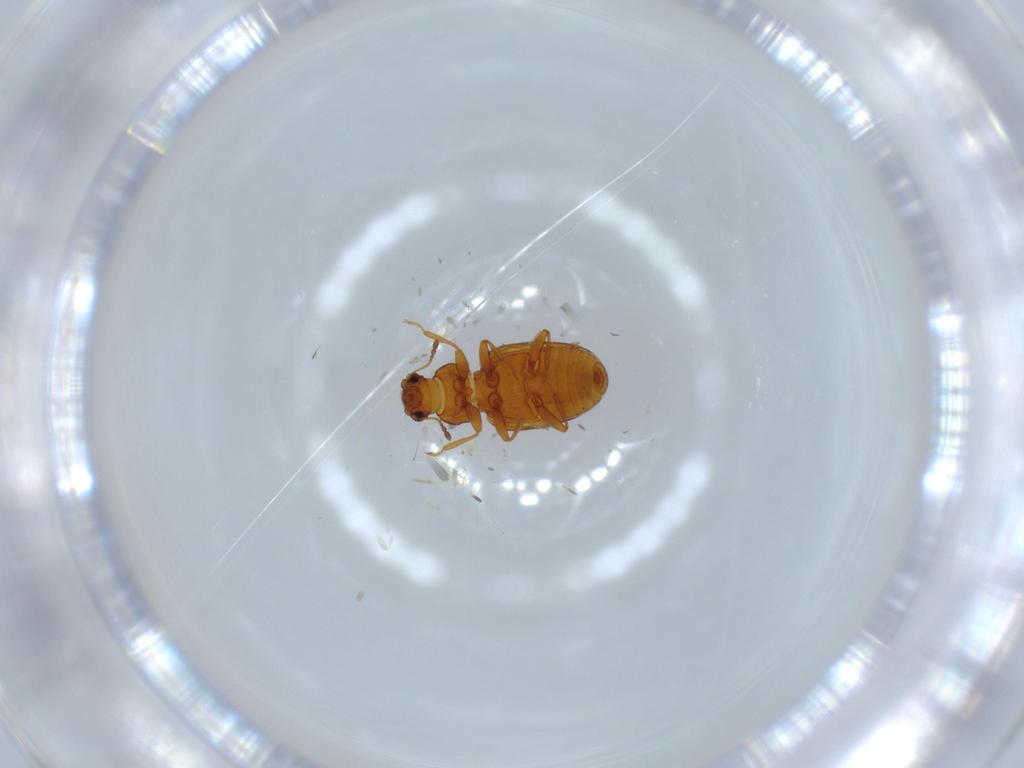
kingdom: Animalia
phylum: Arthropoda
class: Insecta
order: Coleoptera
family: Latridiidae
